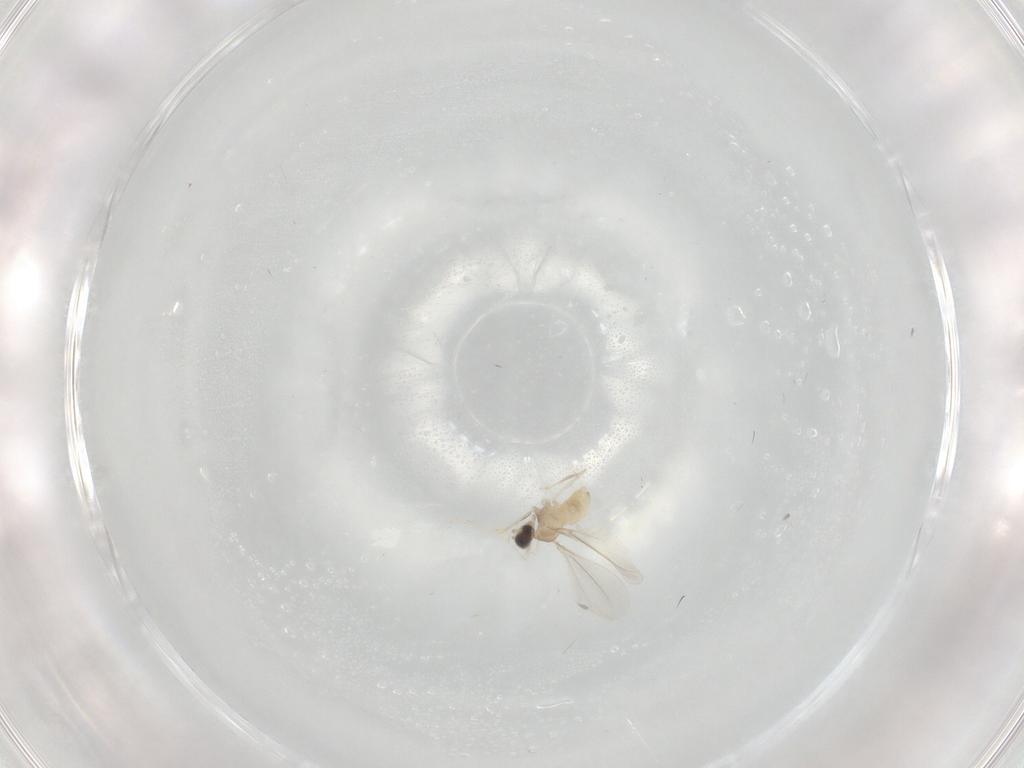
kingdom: Animalia
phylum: Arthropoda
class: Insecta
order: Diptera
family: Cecidomyiidae
